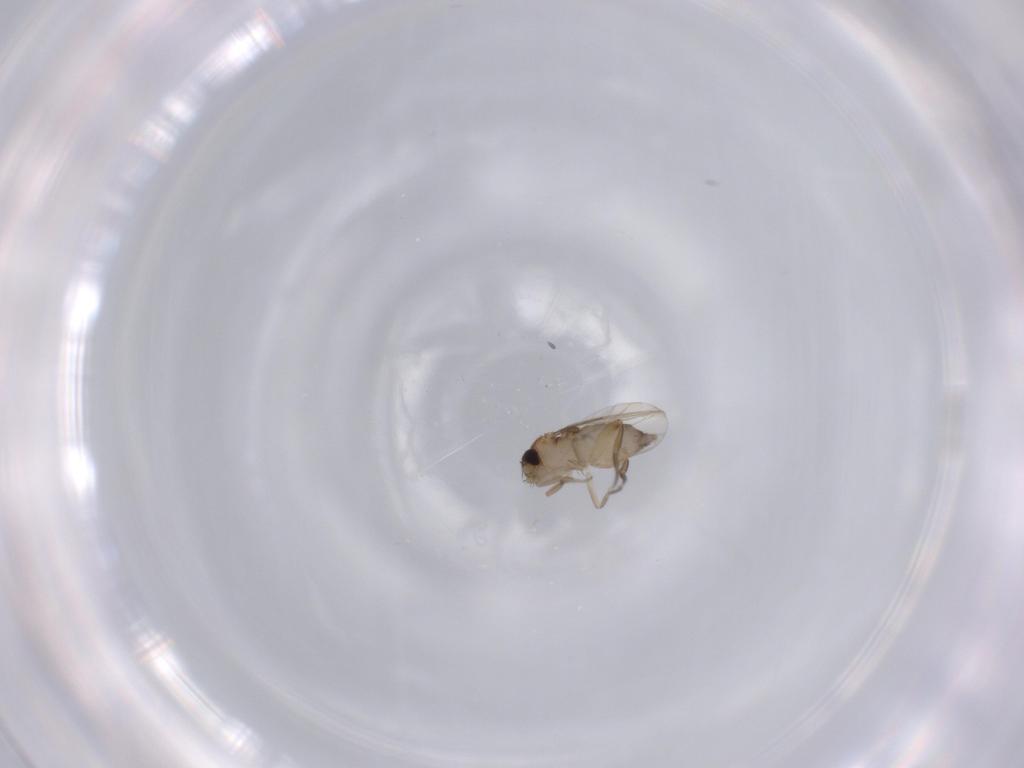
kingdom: Animalia
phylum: Arthropoda
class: Insecta
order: Diptera
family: Phoridae
